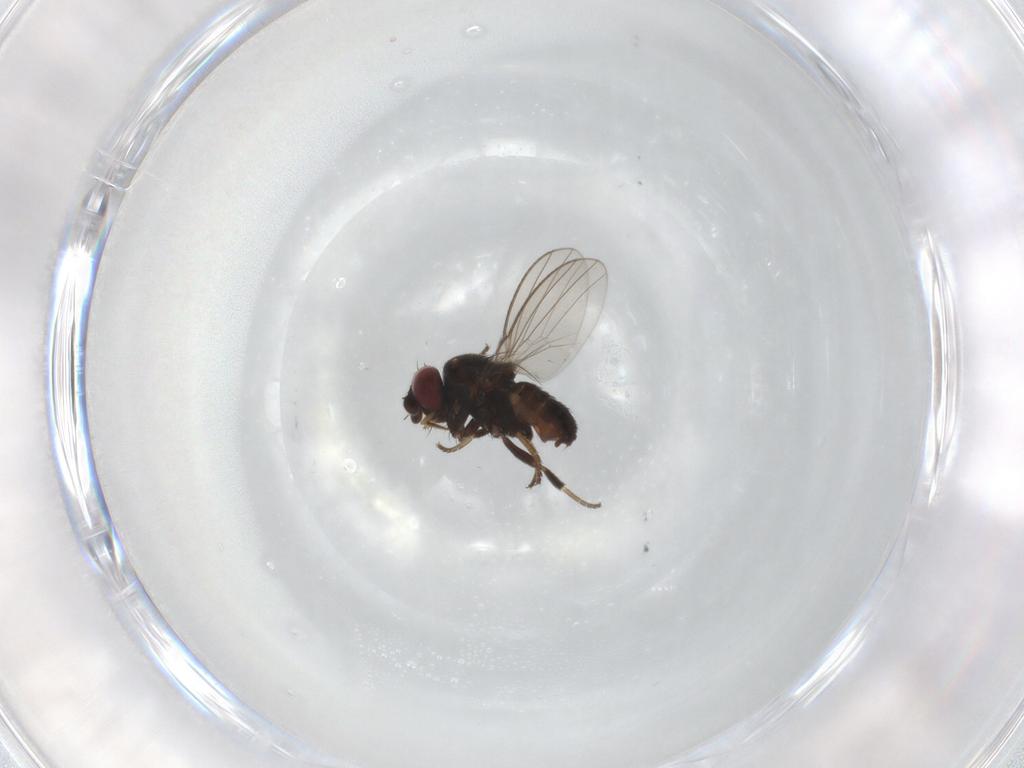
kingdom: Animalia
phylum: Arthropoda
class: Insecta
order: Diptera
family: Milichiidae
